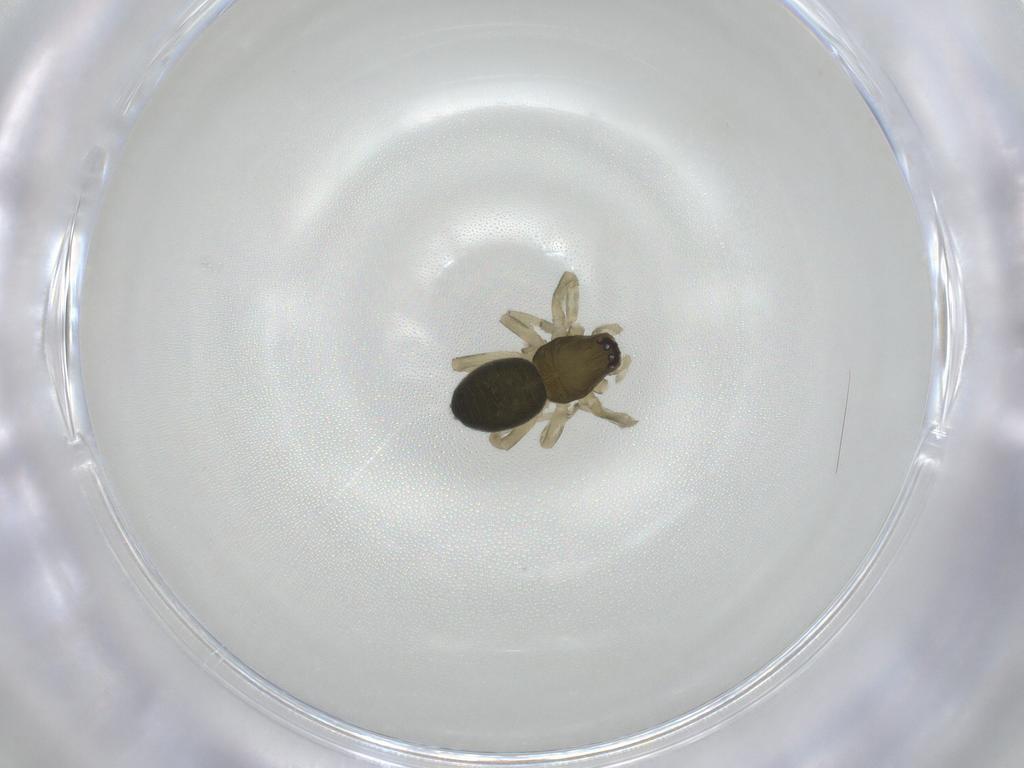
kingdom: Animalia
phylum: Arthropoda
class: Arachnida
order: Araneae
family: Trachelidae
